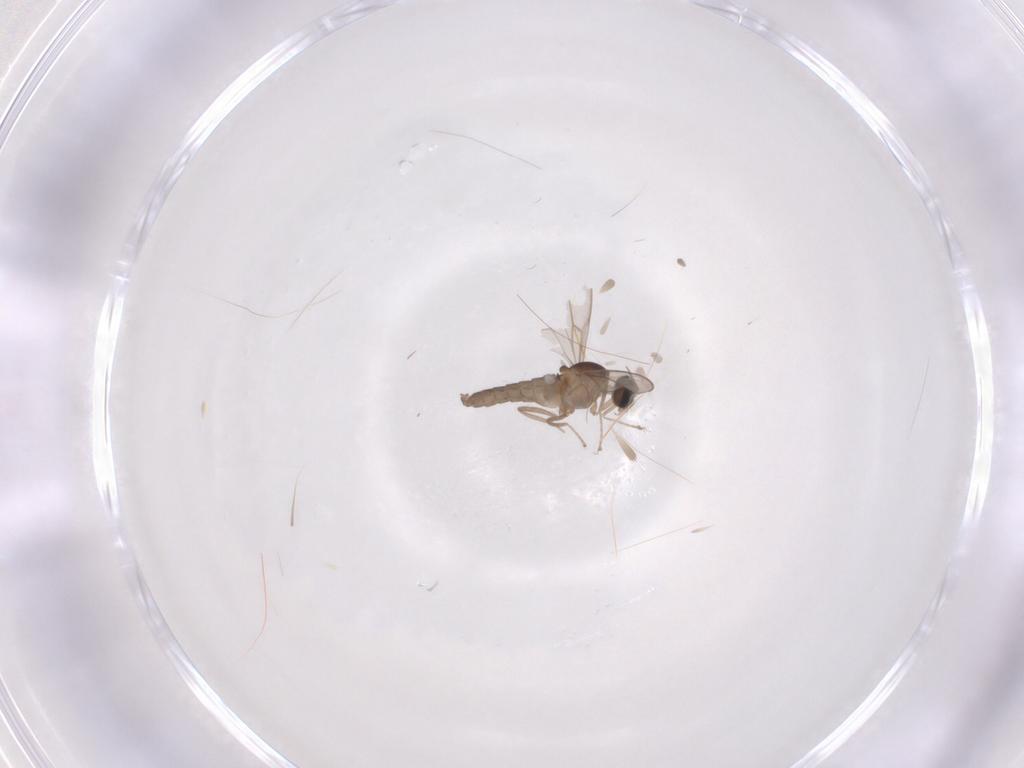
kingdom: Animalia
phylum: Arthropoda
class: Insecta
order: Diptera
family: Cecidomyiidae
